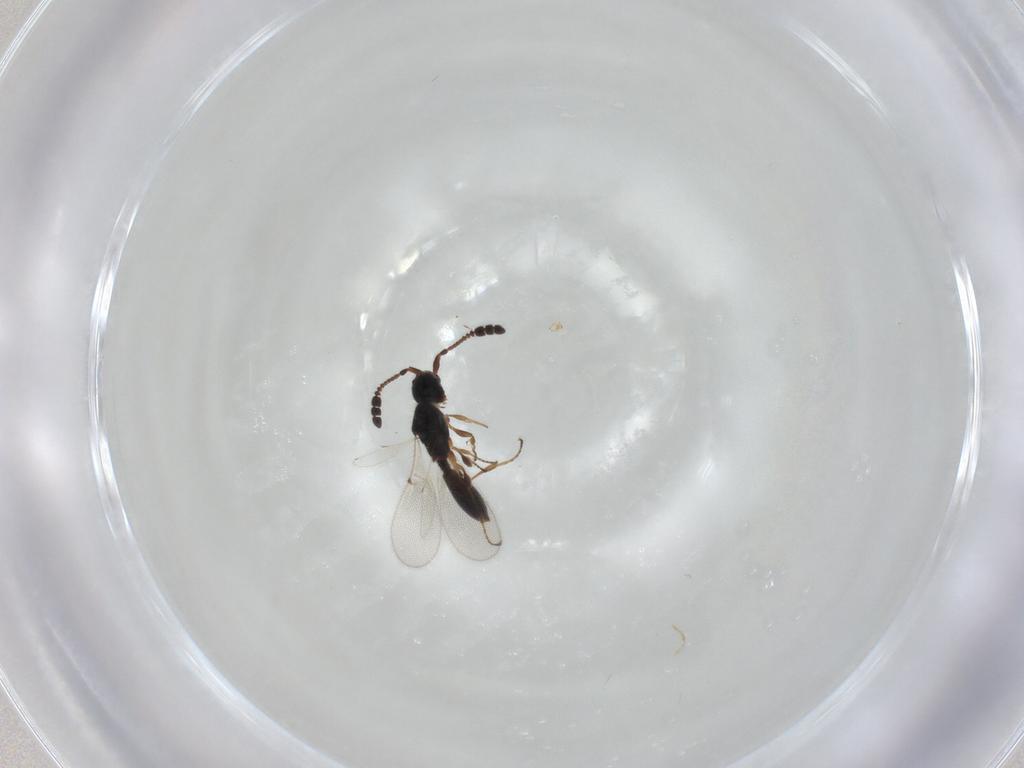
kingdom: Animalia
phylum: Arthropoda
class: Insecta
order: Hymenoptera
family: Diapriidae
